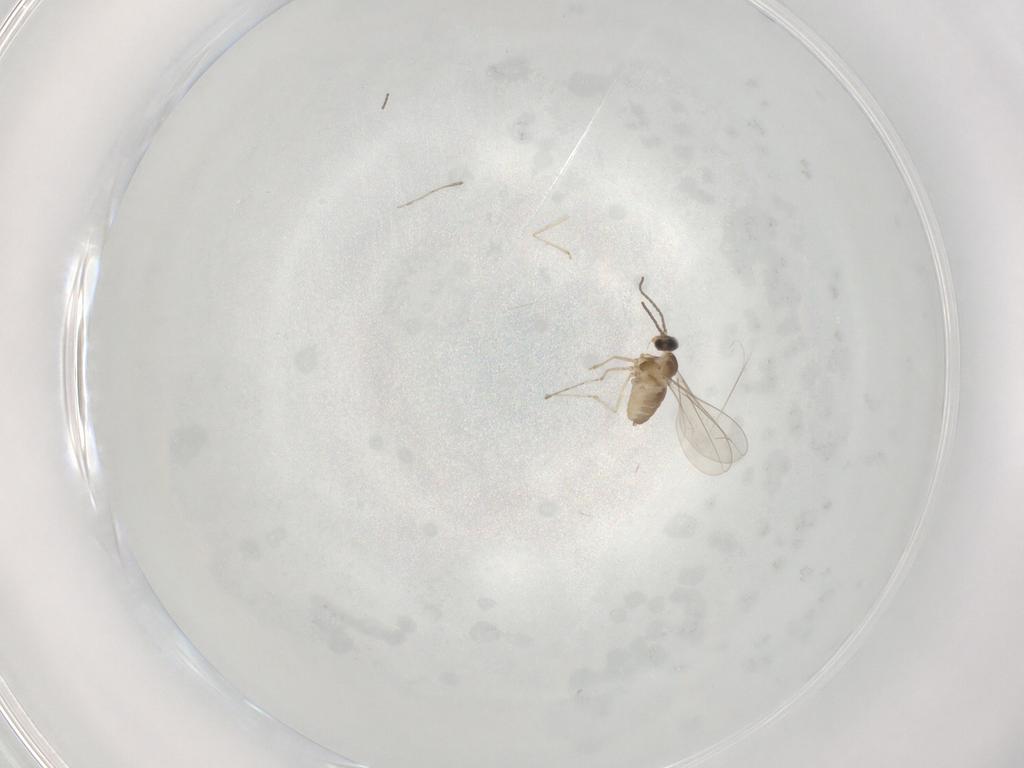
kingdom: Animalia
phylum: Arthropoda
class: Insecta
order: Diptera
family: Cecidomyiidae
